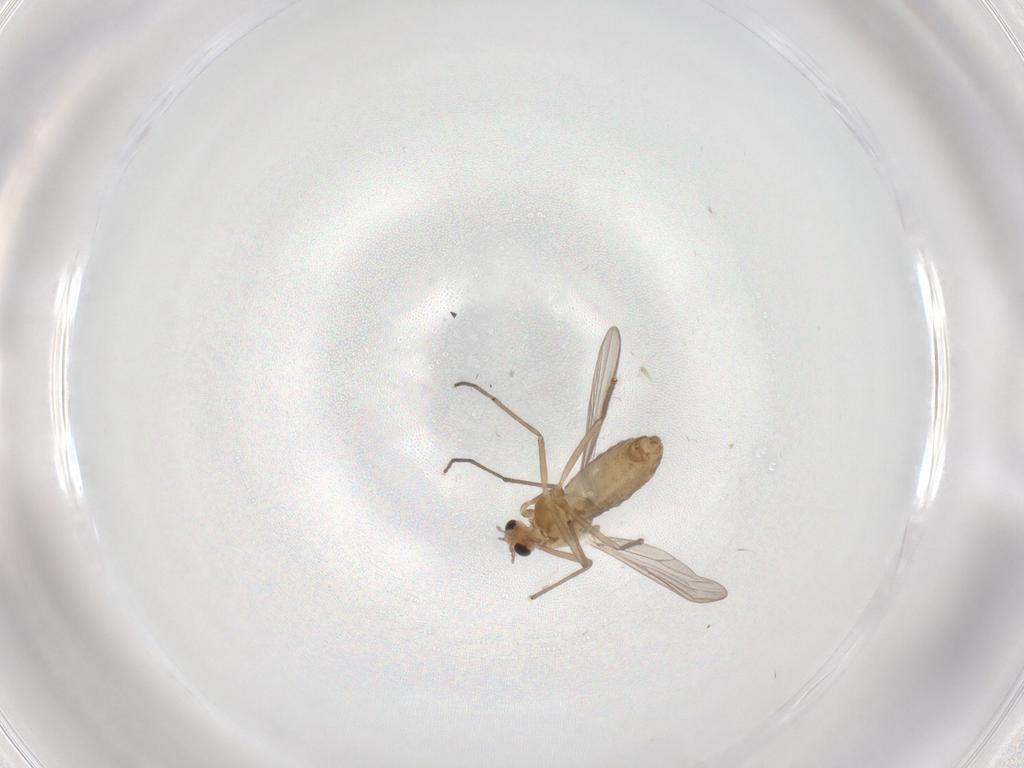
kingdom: Animalia
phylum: Arthropoda
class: Insecta
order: Diptera
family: Chironomidae
